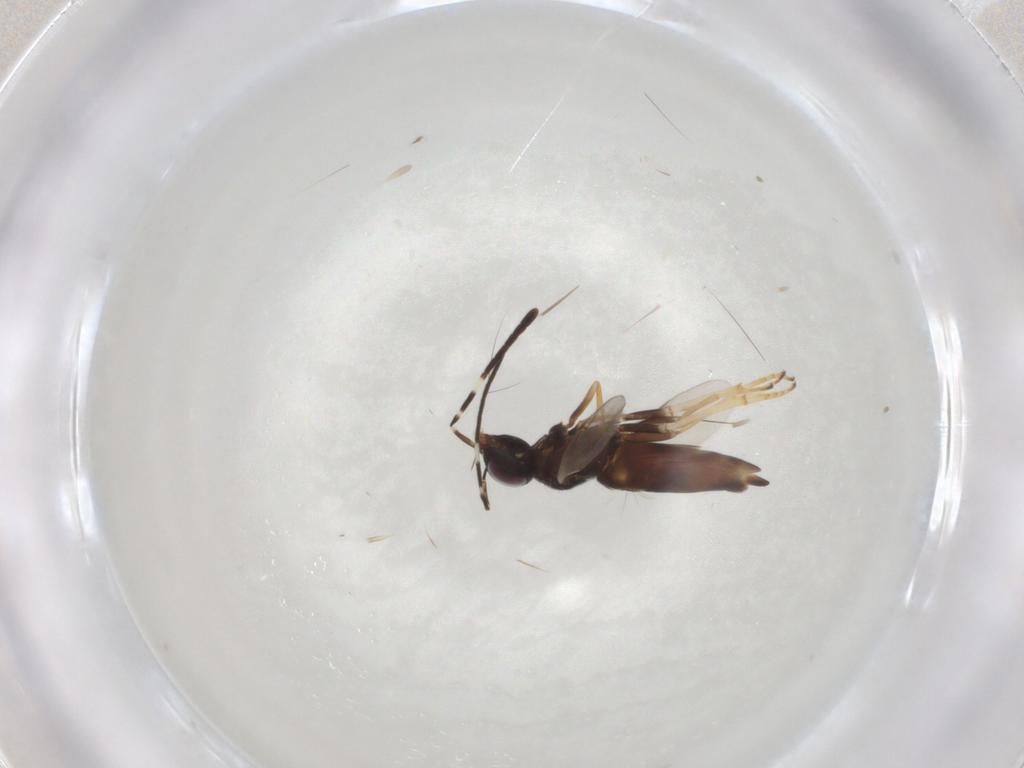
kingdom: Animalia
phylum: Arthropoda
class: Insecta
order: Hymenoptera
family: Encyrtidae
